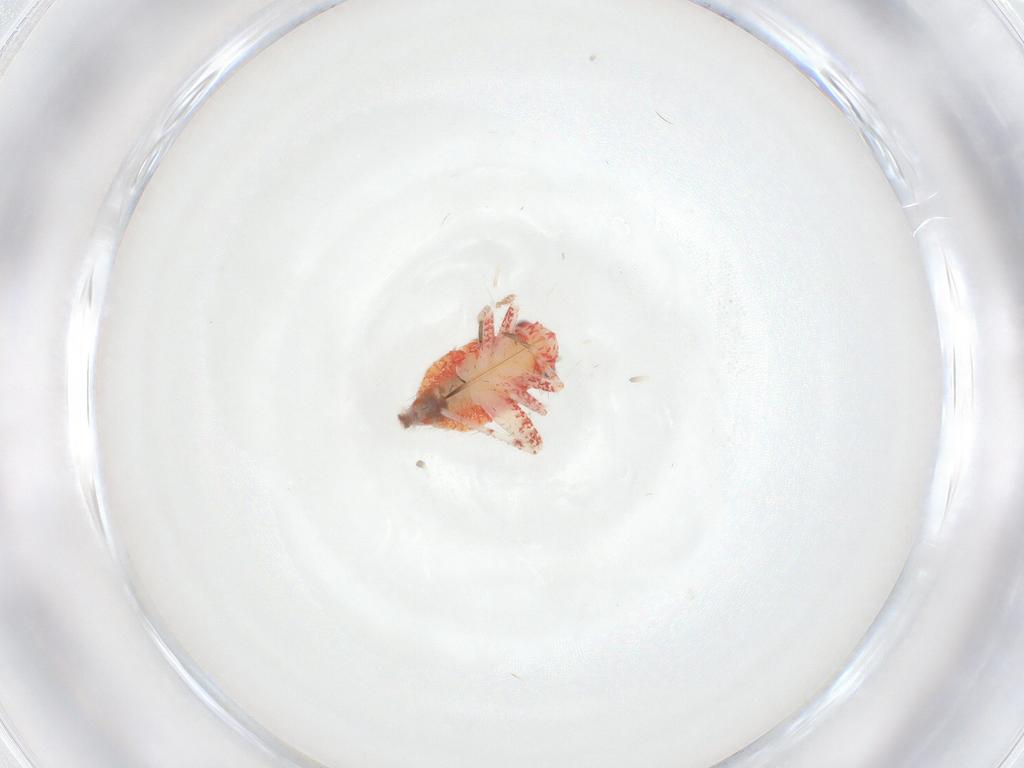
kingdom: Animalia
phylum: Arthropoda
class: Insecta
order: Hemiptera
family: Miridae
